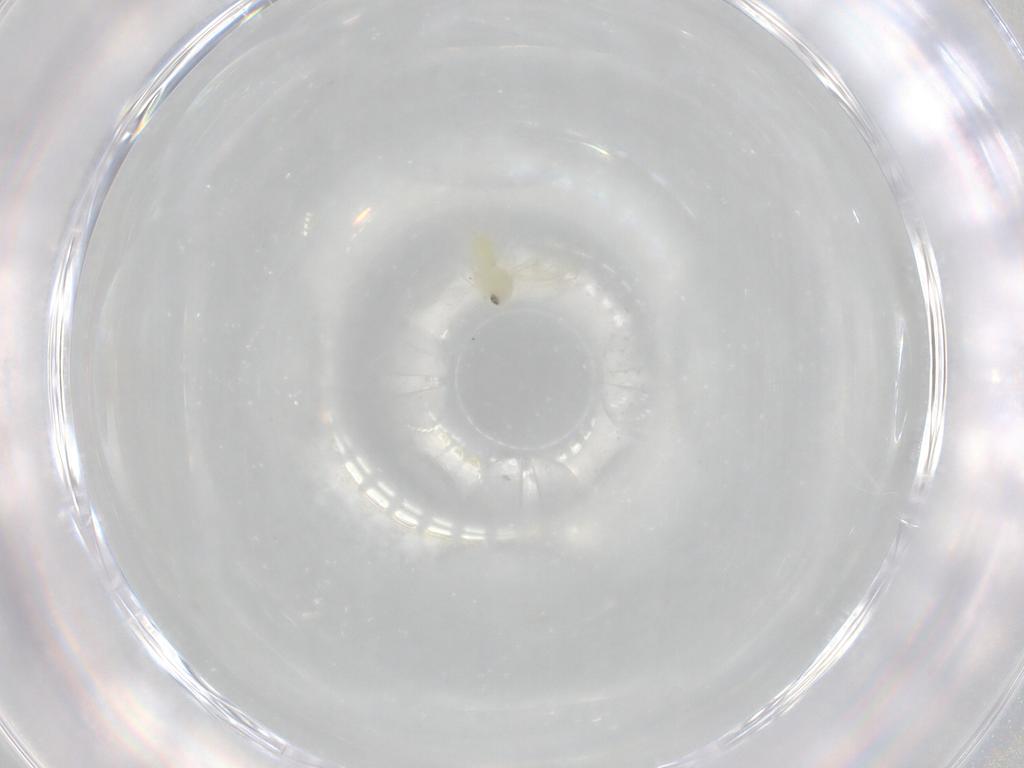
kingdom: Animalia
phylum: Arthropoda
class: Insecta
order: Hemiptera
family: Aleyrodidae
